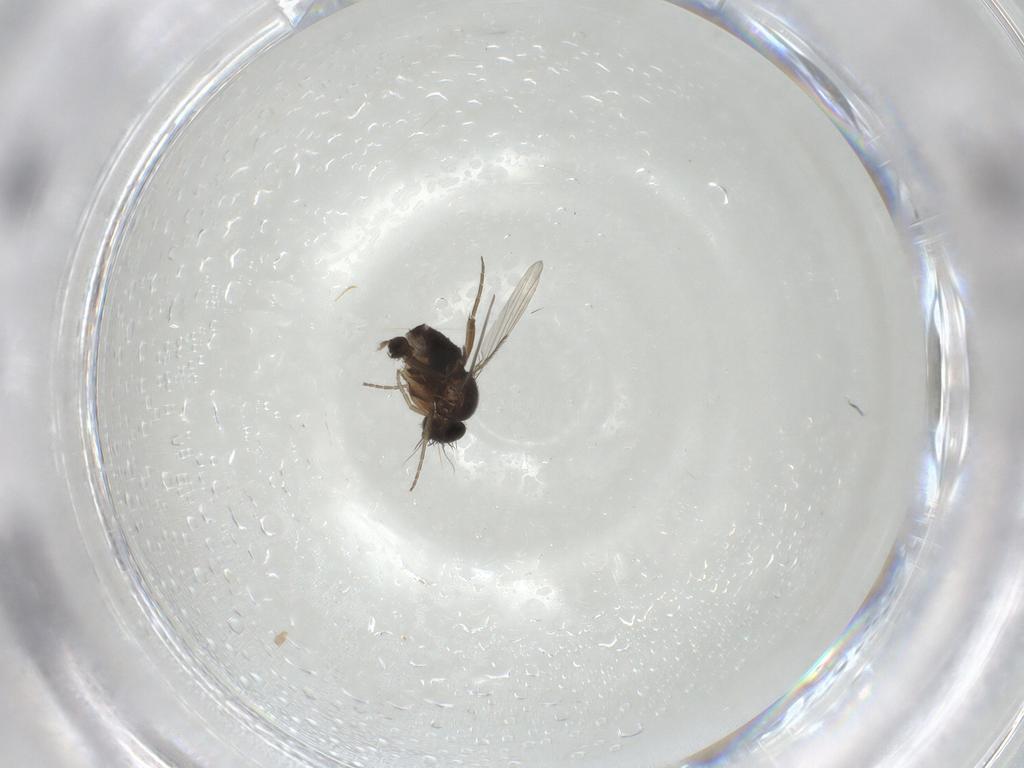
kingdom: Animalia
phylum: Arthropoda
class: Insecta
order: Diptera
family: Phoridae
